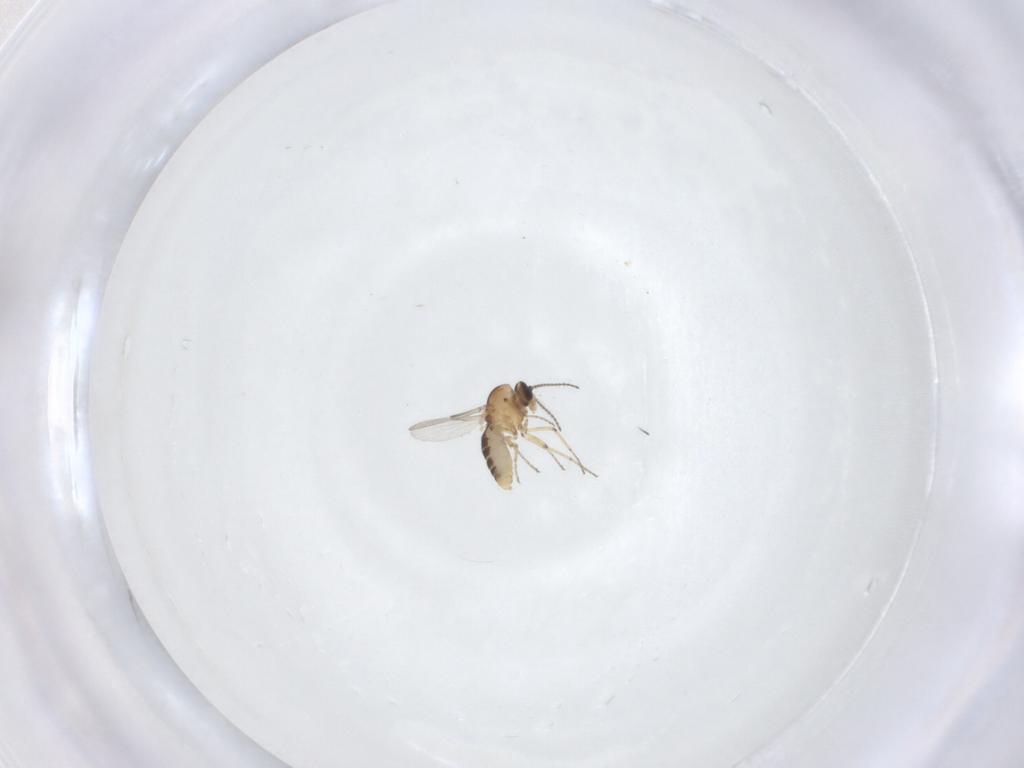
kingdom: Animalia
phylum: Arthropoda
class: Insecta
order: Diptera
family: Ceratopogonidae
